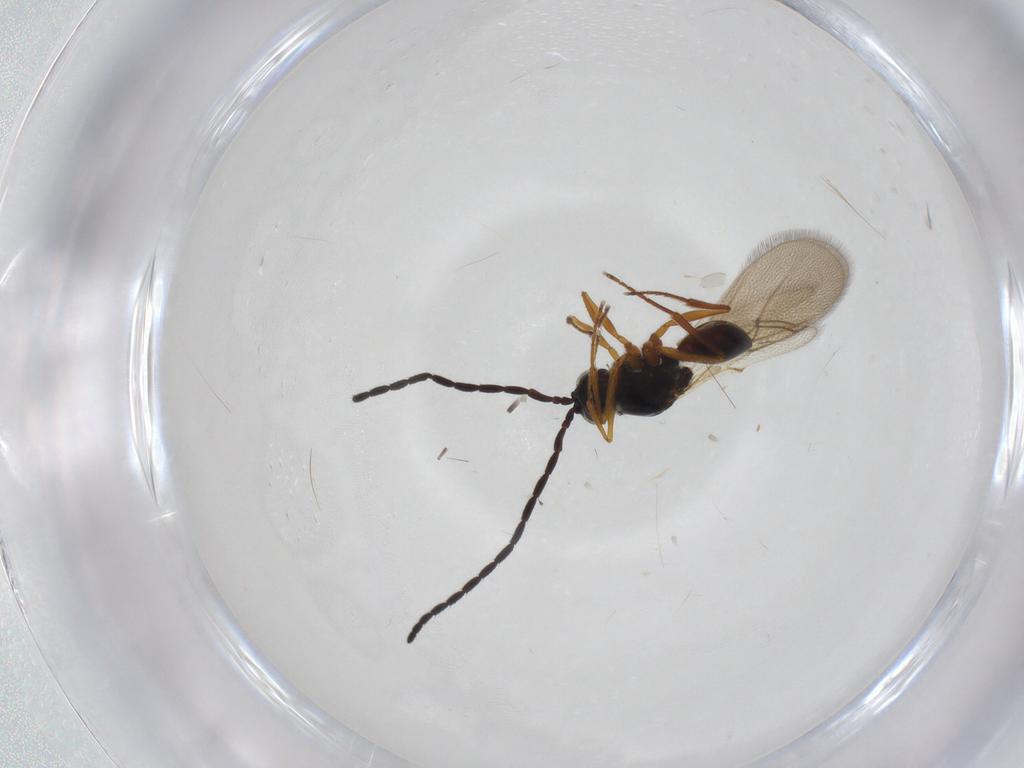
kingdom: Animalia
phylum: Arthropoda
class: Insecta
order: Hymenoptera
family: Figitidae
